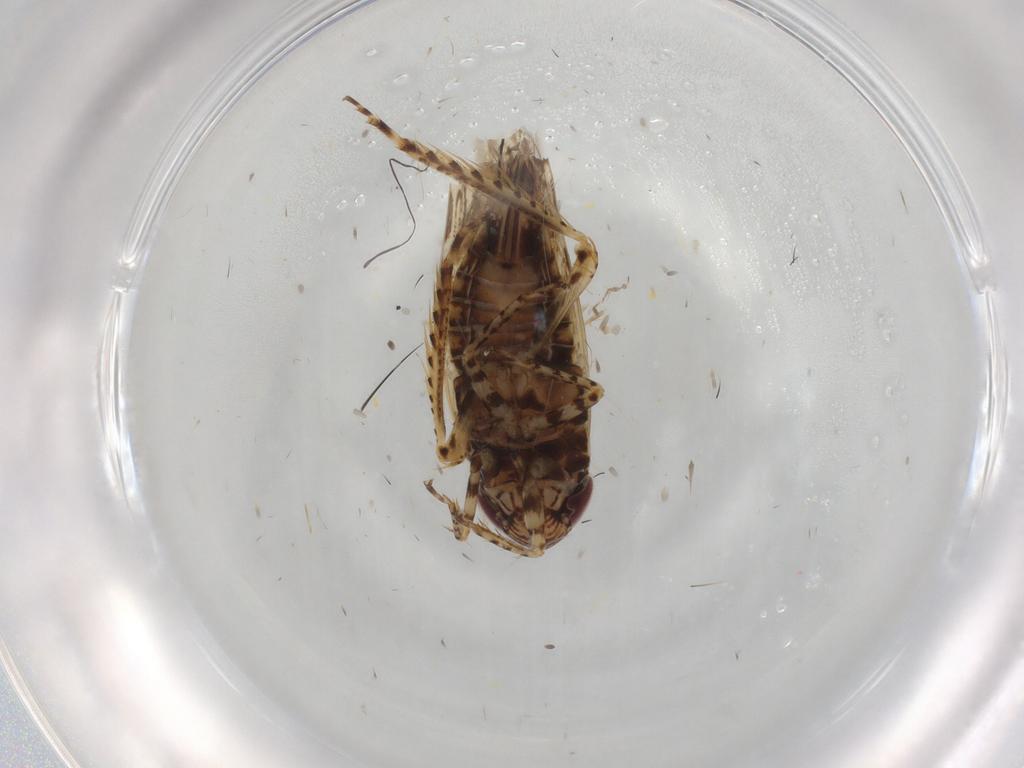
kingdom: Animalia
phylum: Arthropoda
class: Insecta
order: Hemiptera
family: Cicadellidae
